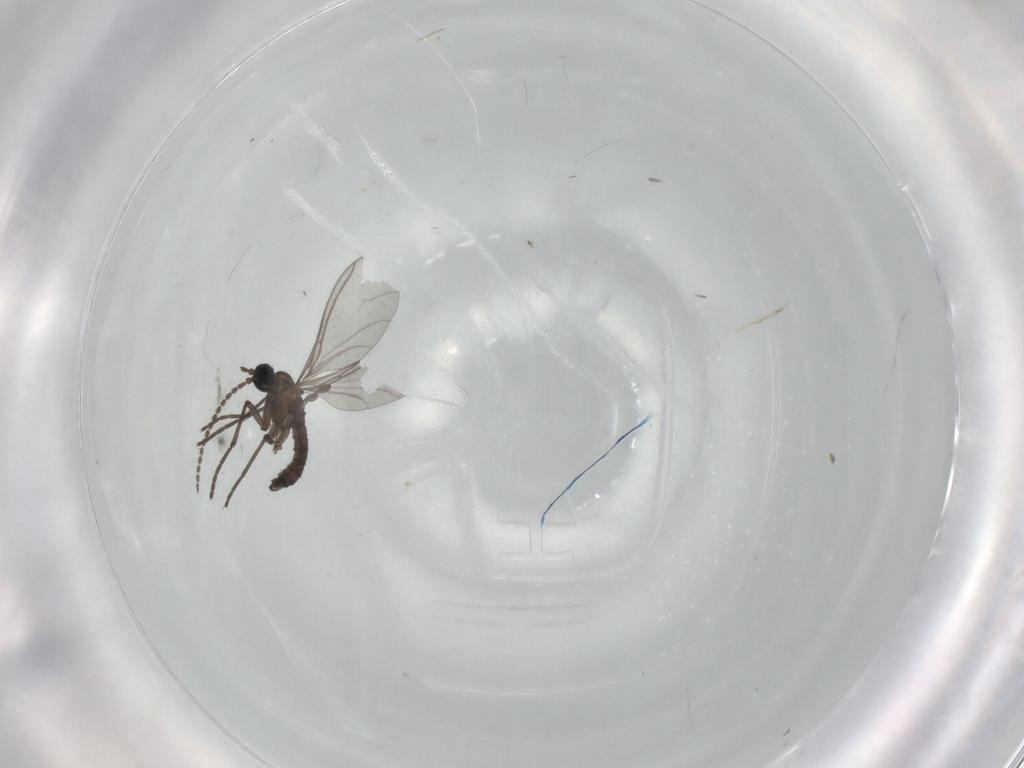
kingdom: Animalia
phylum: Arthropoda
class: Insecta
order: Diptera
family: Sciaridae
